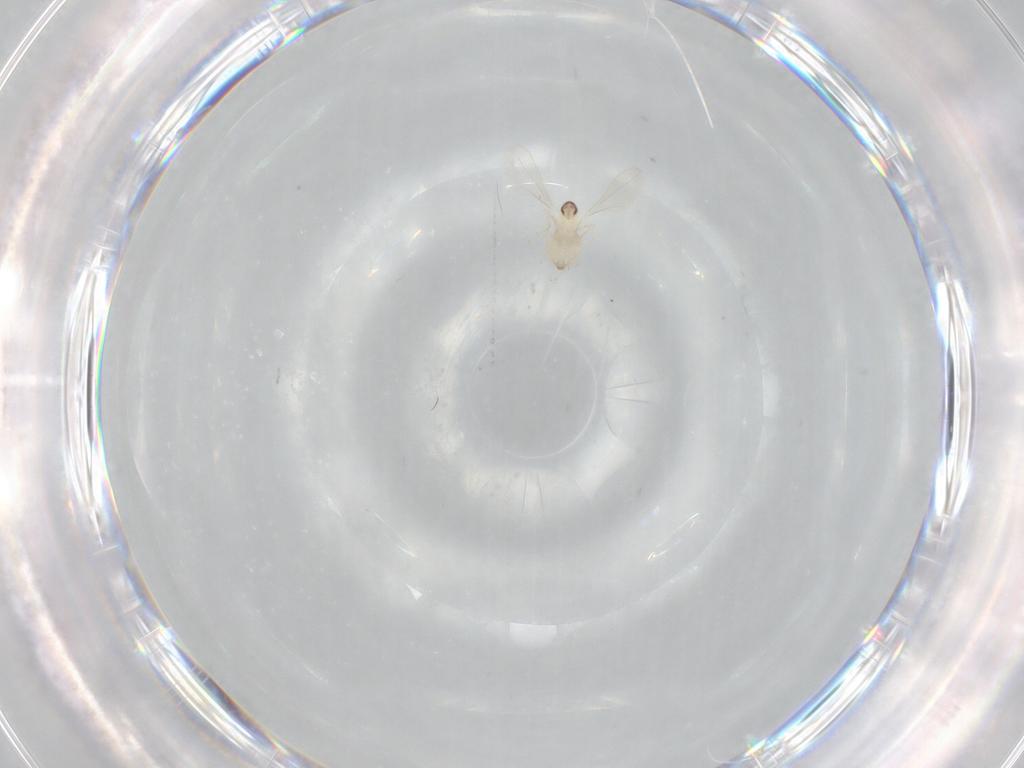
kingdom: Animalia
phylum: Arthropoda
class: Insecta
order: Diptera
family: Cecidomyiidae
